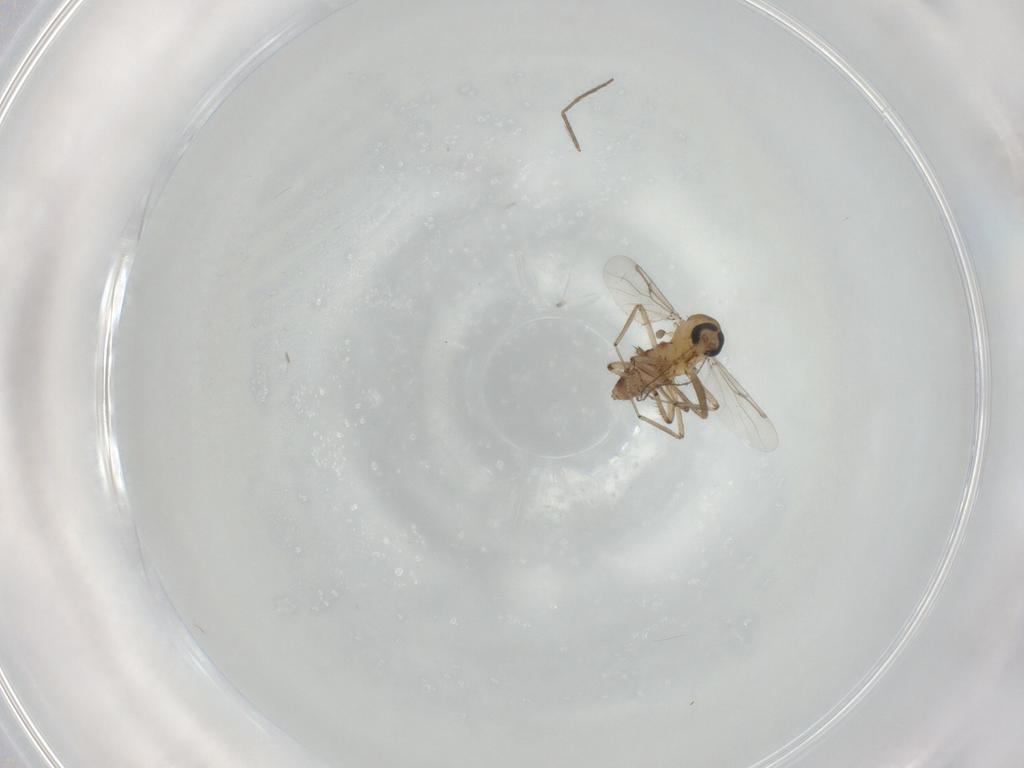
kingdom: Animalia
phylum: Arthropoda
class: Insecta
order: Diptera
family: Ceratopogonidae
